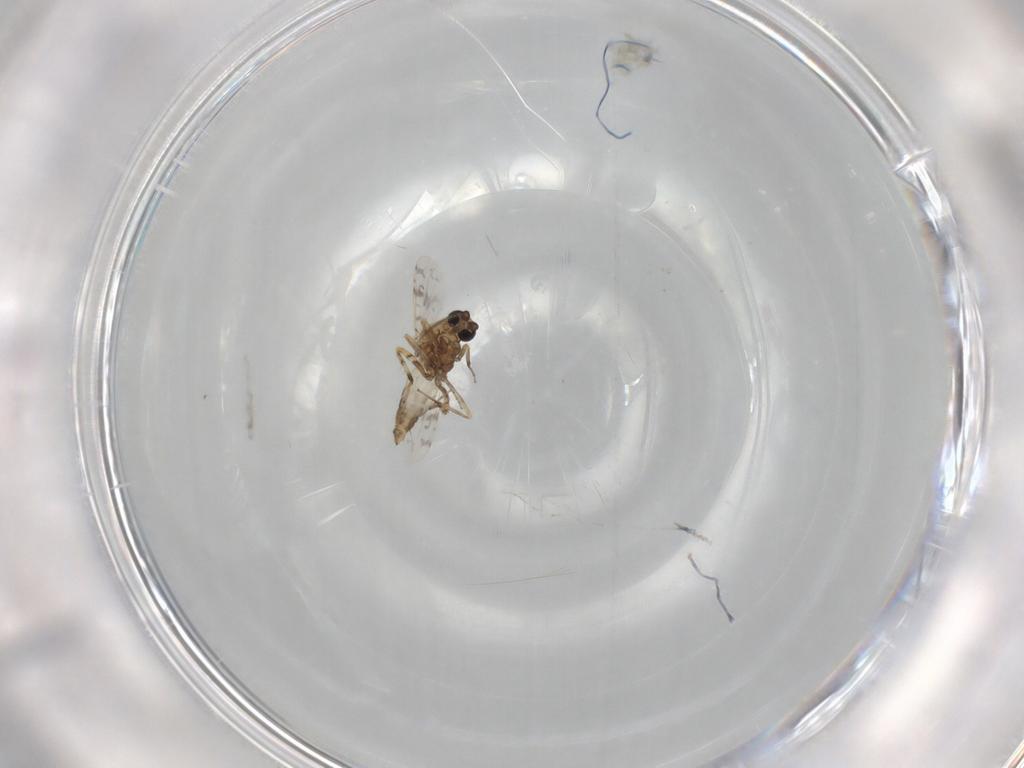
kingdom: Animalia
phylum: Arthropoda
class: Insecta
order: Diptera
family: Ceratopogonidae
